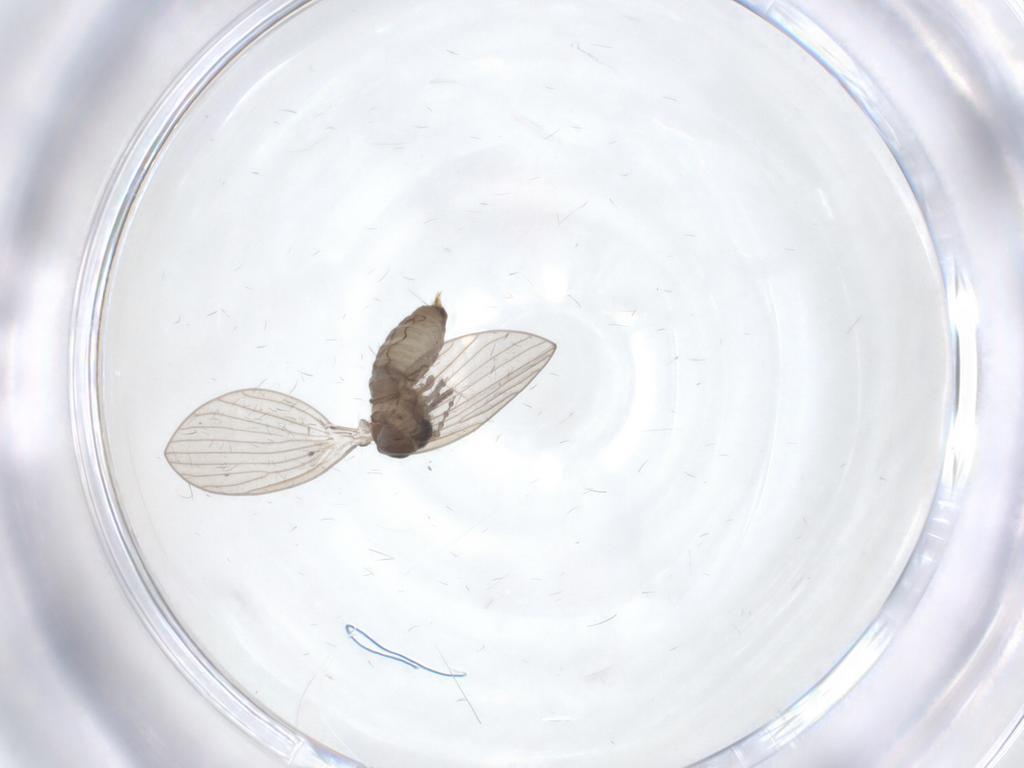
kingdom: Animalia
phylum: Arthropoda
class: Insecta
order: Diptera
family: Psychodidae
